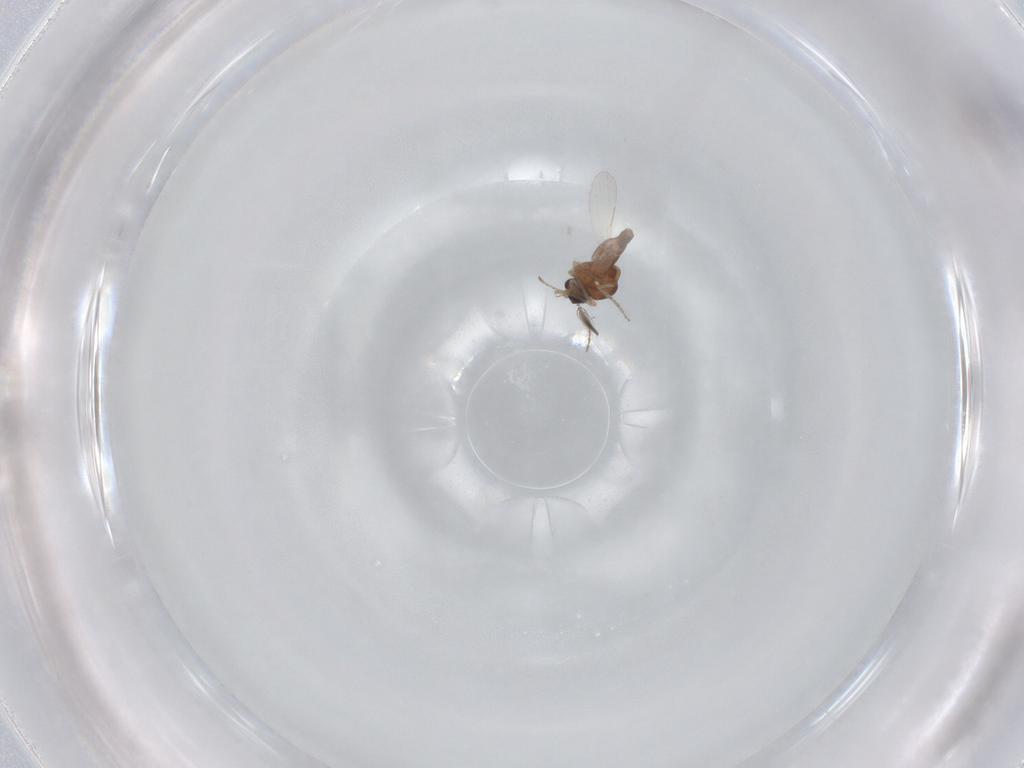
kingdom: Animalia
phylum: Arthropoda
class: Insecta
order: Diptera
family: Ceratopogonidae
